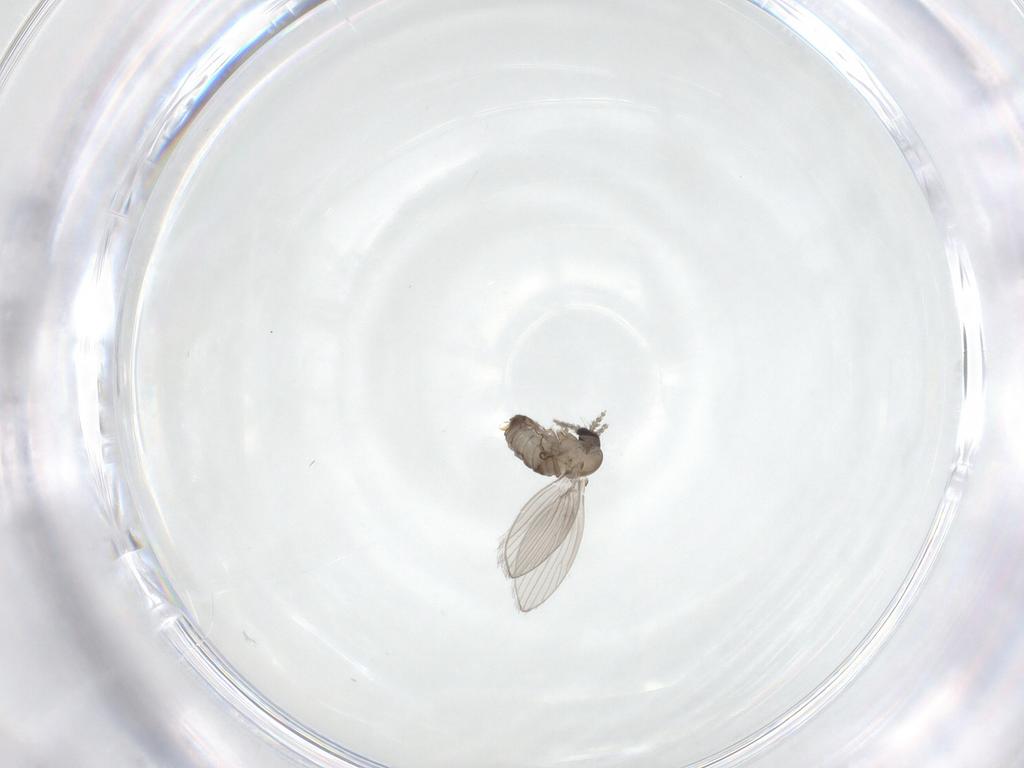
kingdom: Animalia
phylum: Arthropoda
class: Insecta
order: Diptera
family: Psychodidae
